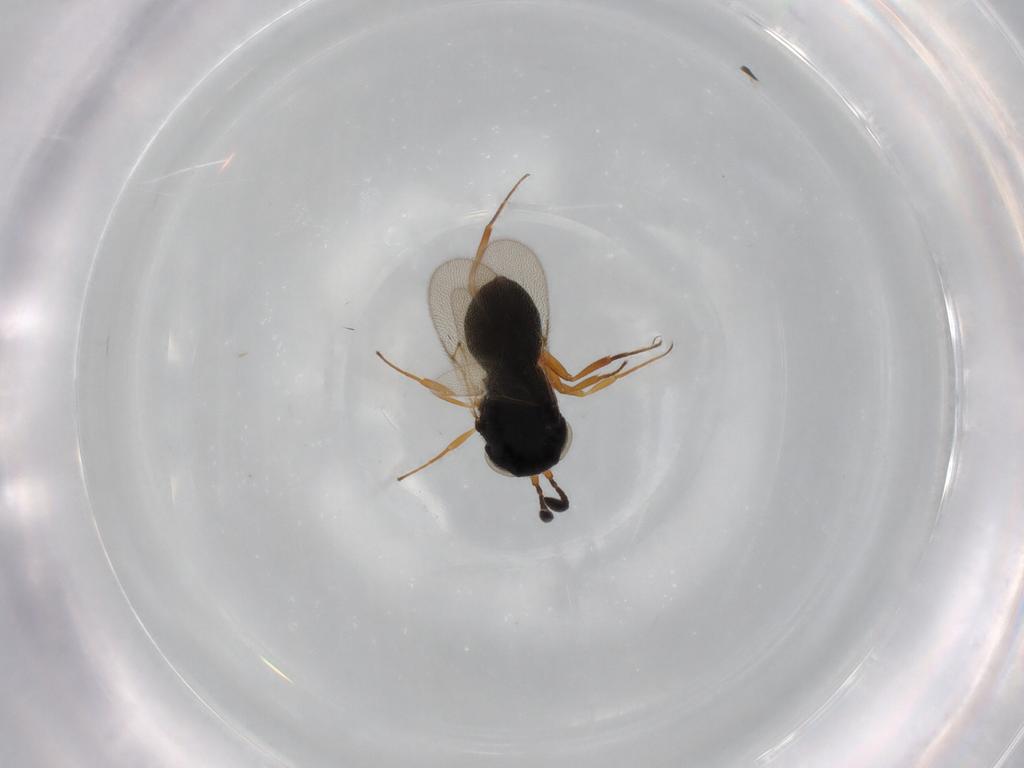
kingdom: Animalia
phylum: Arthropoda
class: Insecta
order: Hymenoptera
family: Scelionidae
